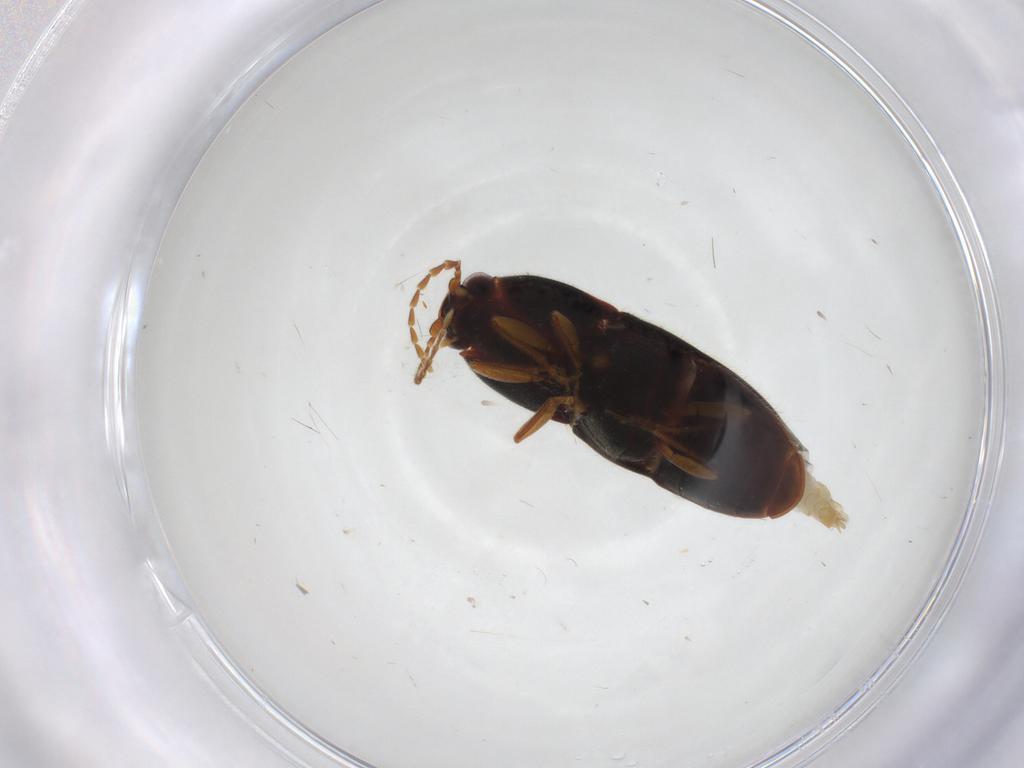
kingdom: Animalia
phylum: Arthropoda
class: Insecta
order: Coleoptera
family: Elateridae
